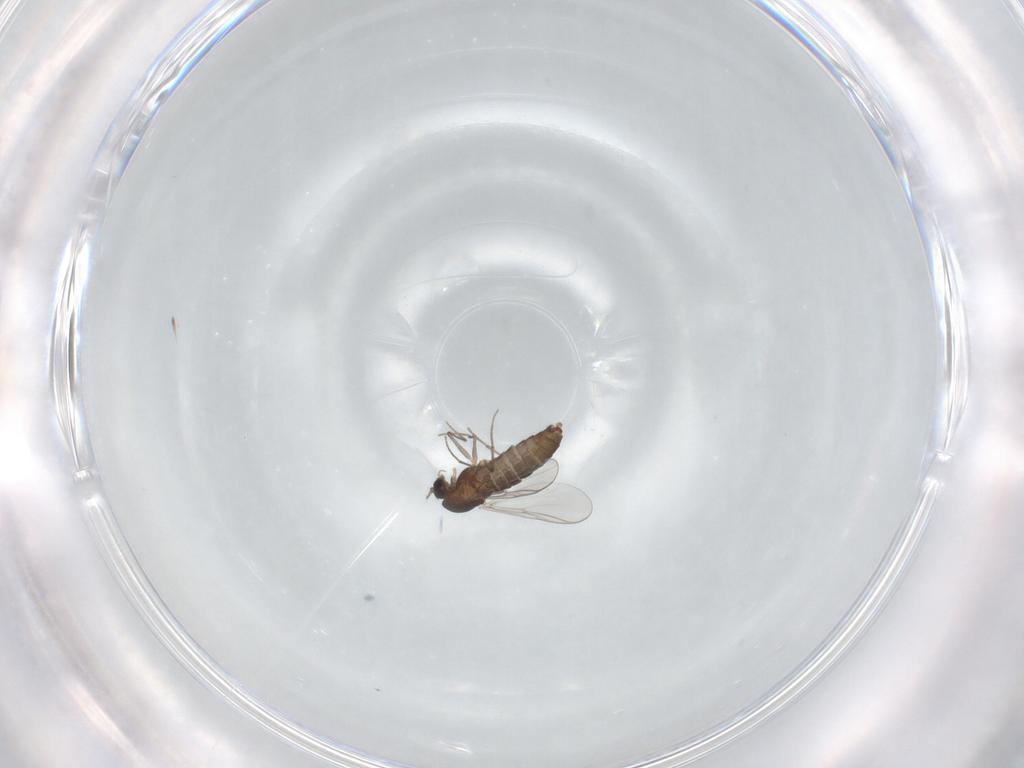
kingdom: Animalia
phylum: Arthropoda
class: Insecta
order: Diptera
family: Chironomidae
